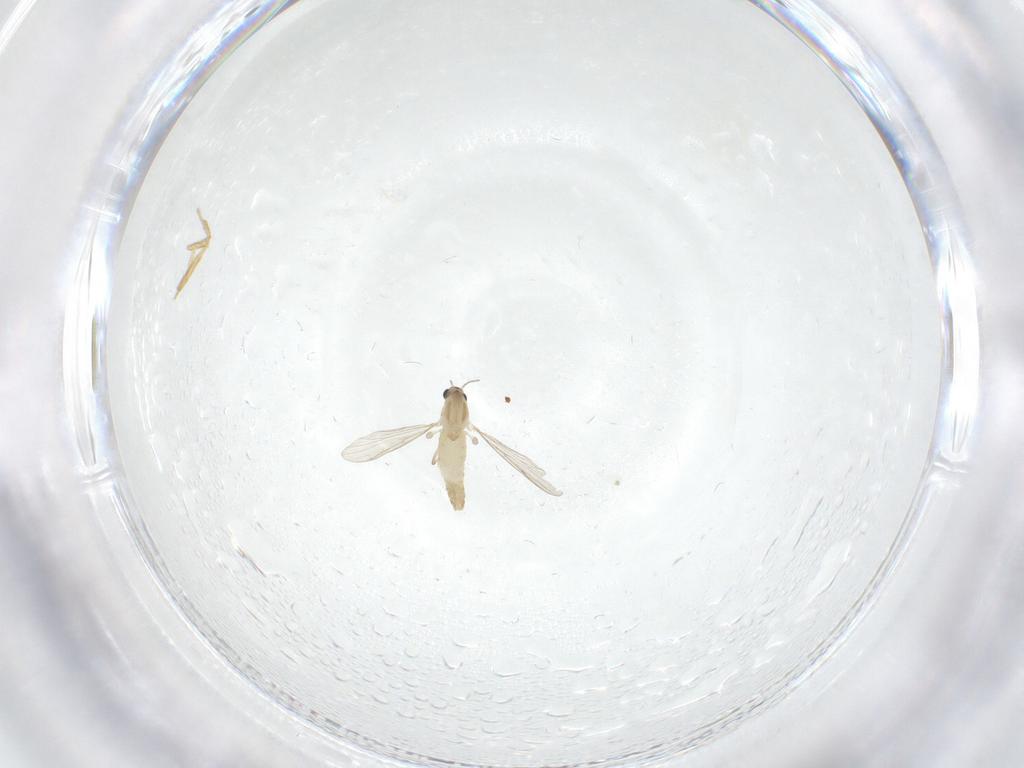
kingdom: Animalia
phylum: Arthropoda
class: Insecta
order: Diptera
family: Chironomidae
